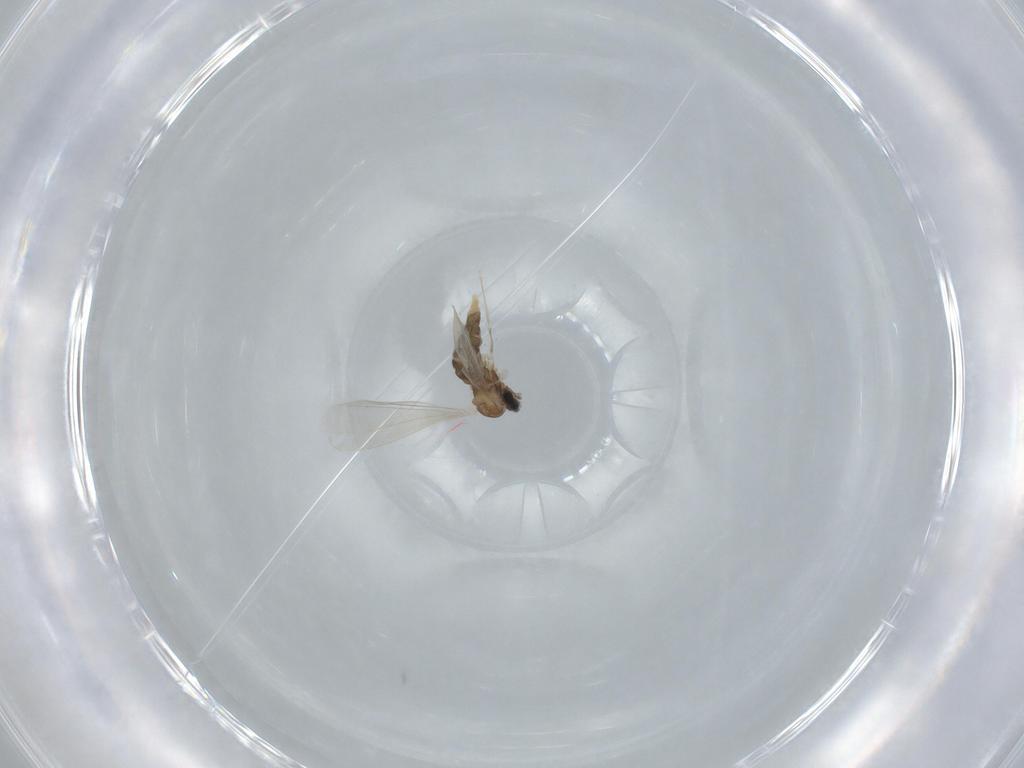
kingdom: Animalia
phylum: Arthropoda
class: Insecta
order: Diptera
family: Cecidomyiidae
